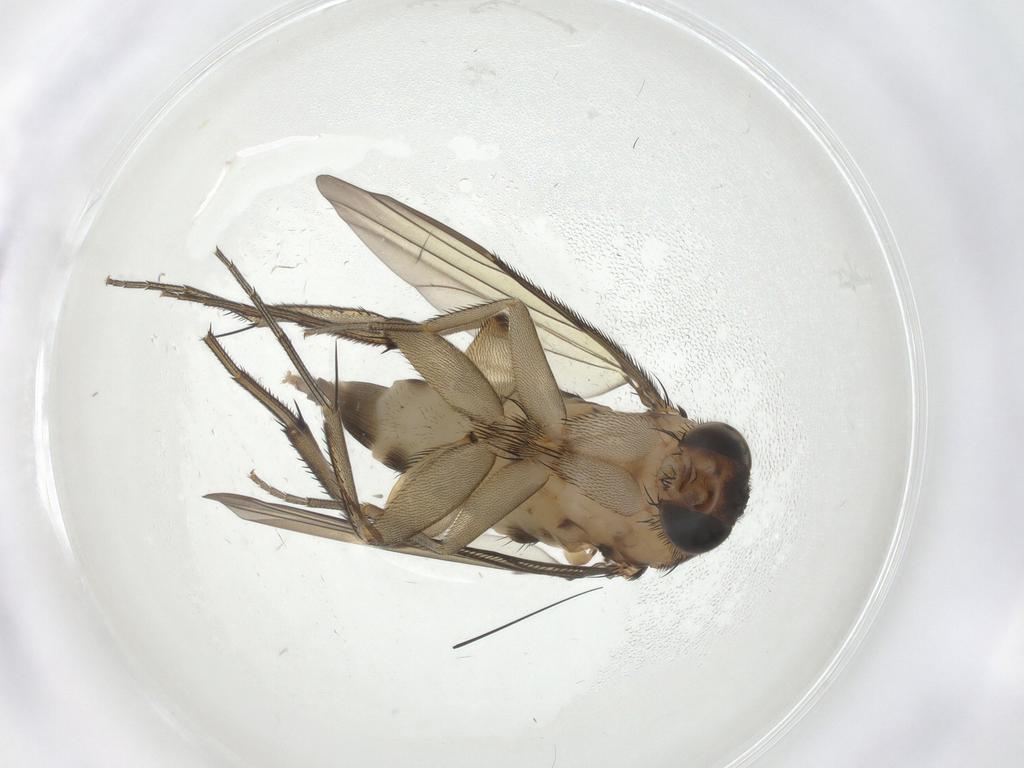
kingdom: Animalia
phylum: Arthropoda
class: Insecta
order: Diptera
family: Phoridae
